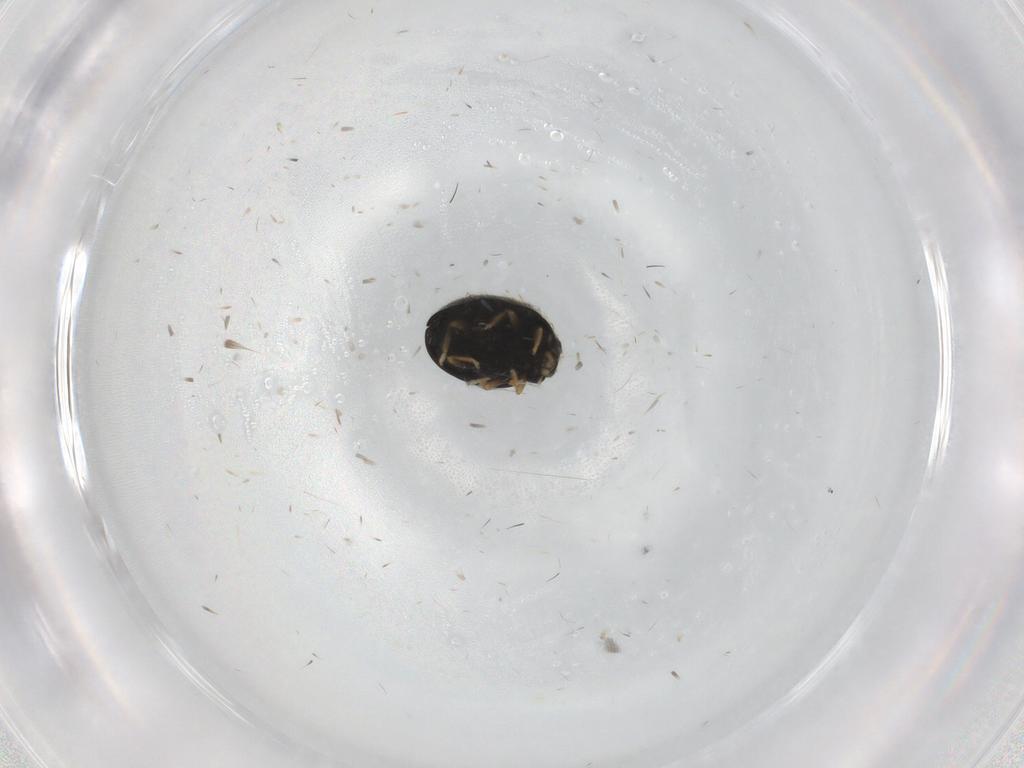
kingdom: Animalia
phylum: Arthropoda
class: Insecta
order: Coleoptera
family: Coccinellidae
